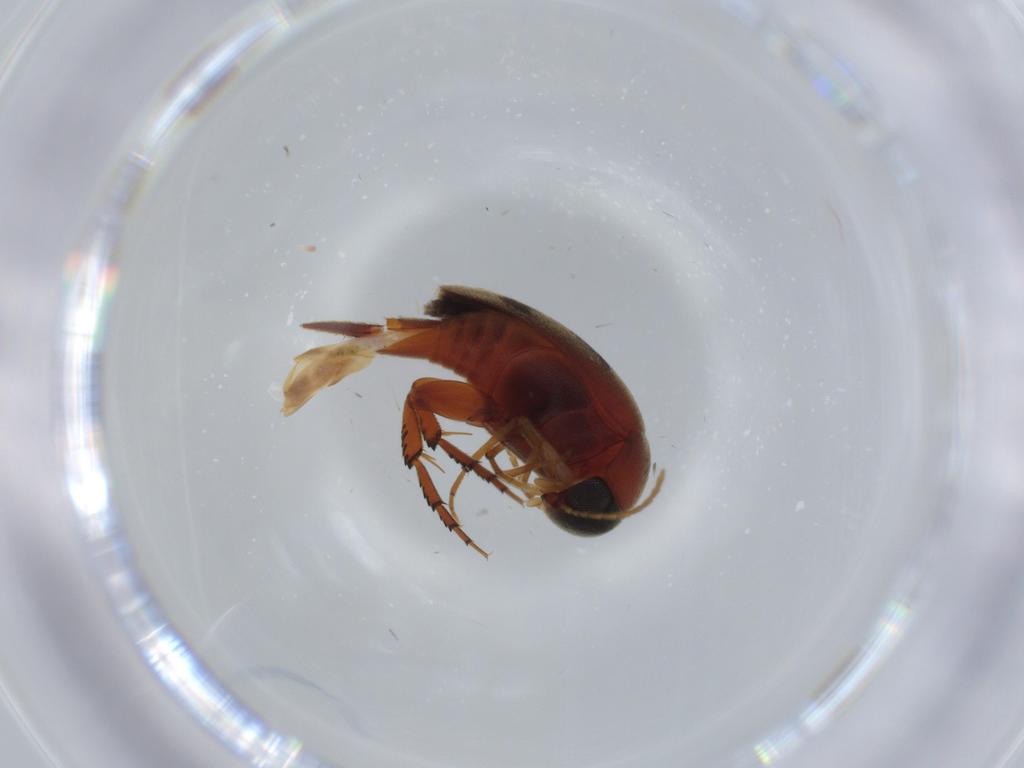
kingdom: Animalia
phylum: Arthropoda
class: Insecta
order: Coleoptera
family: Mordellidae
